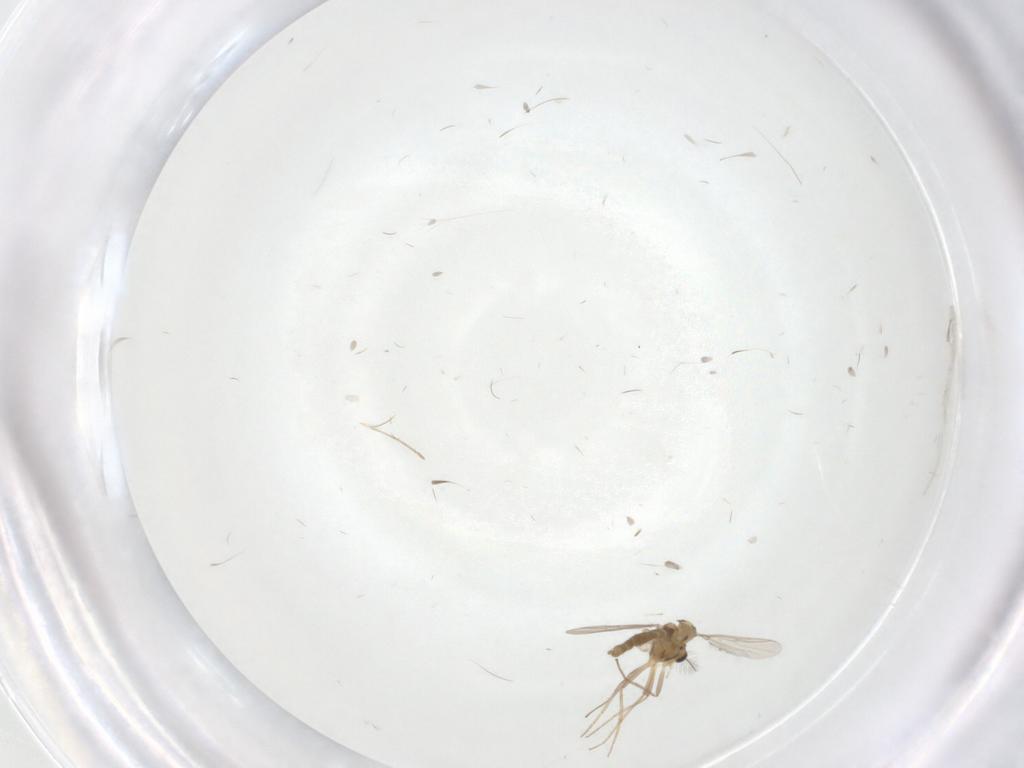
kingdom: Animalia
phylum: Arthropoda
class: Insecta
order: Diptera
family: Chironomidae
